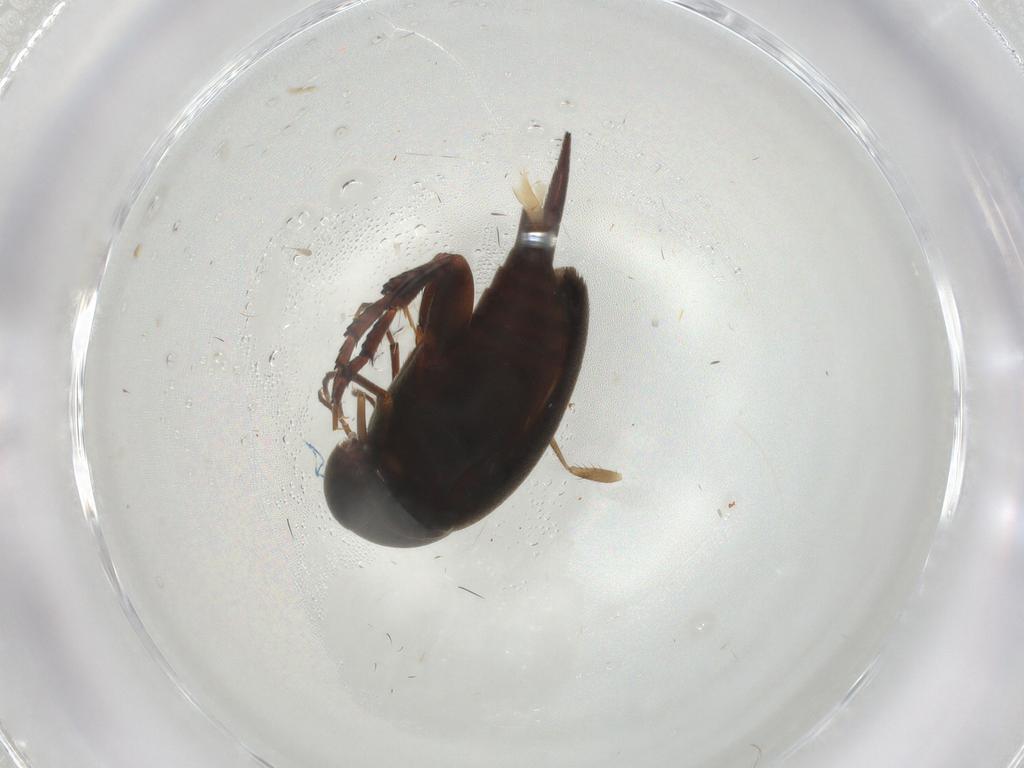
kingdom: Animalia
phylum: Arthropoda
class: Insecta
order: Coleoptera
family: Mordellidae
